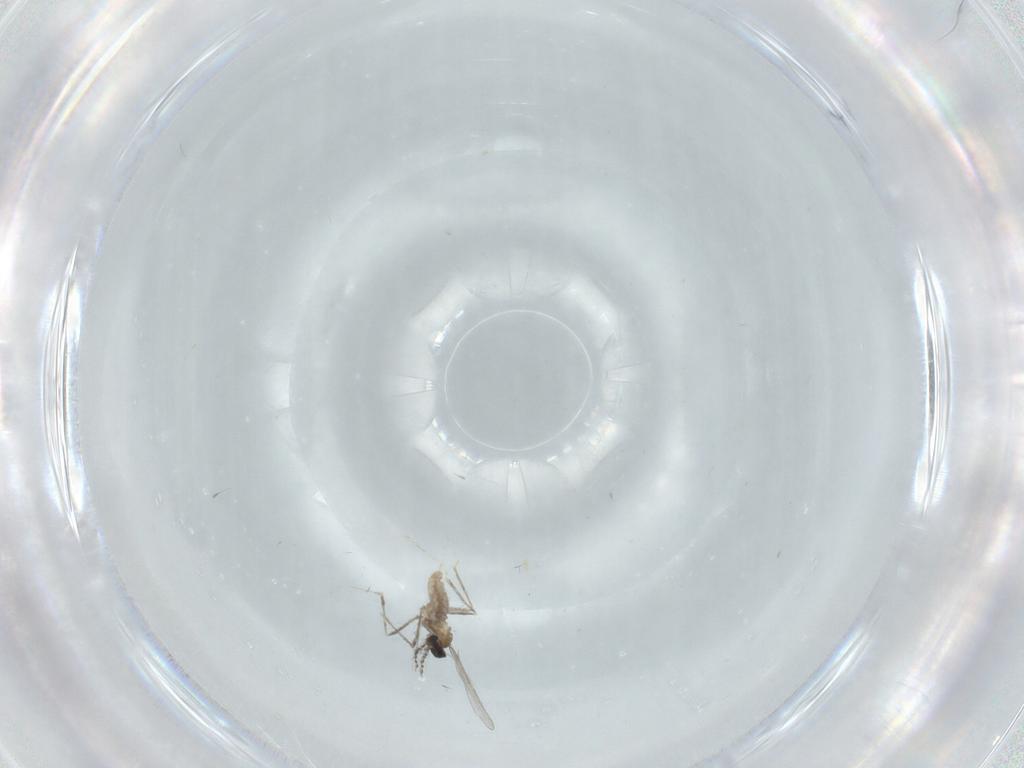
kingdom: Animalia
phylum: Arthropoda
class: Insecta
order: Diptera
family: Cecidomyiidae
